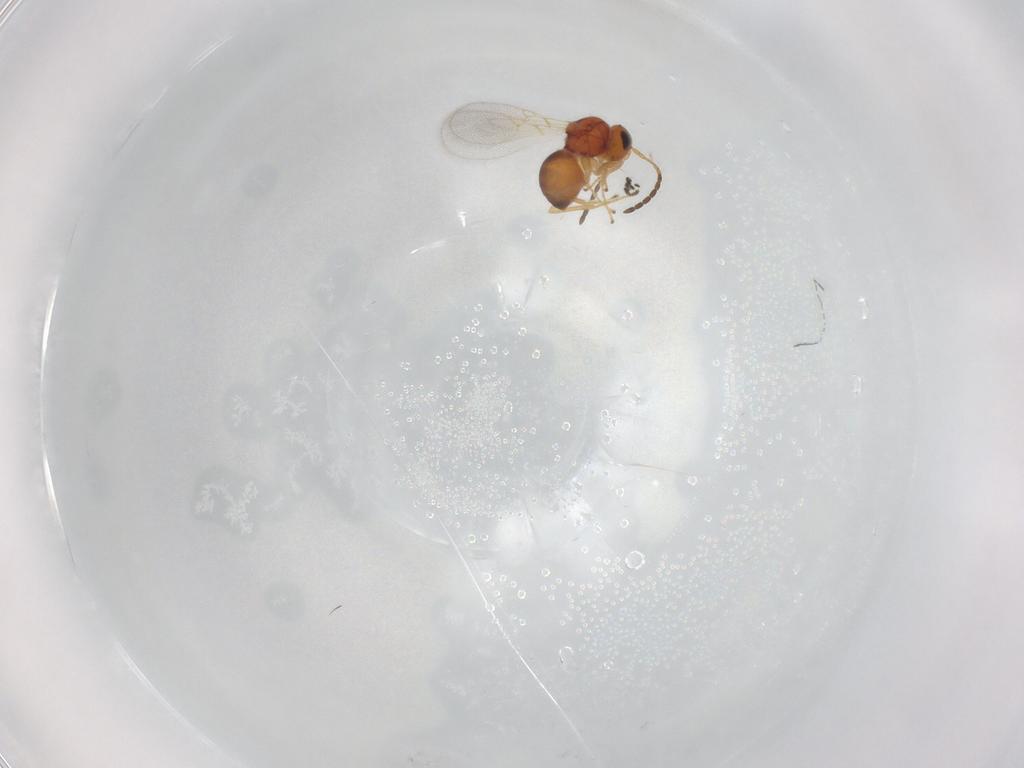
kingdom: Animalia
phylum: Arthropoda
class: Insecta
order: Hymenoptera
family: Figitidae
